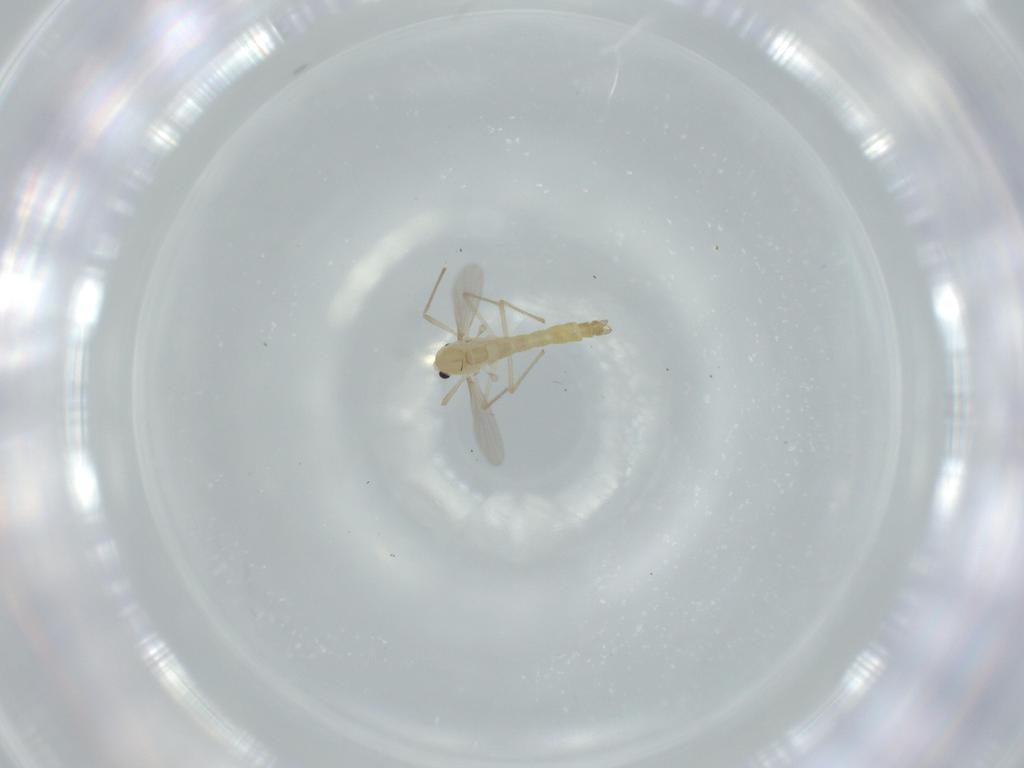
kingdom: Animalia
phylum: Arthropoda
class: Insecta
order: Diptera
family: Chironomidae
